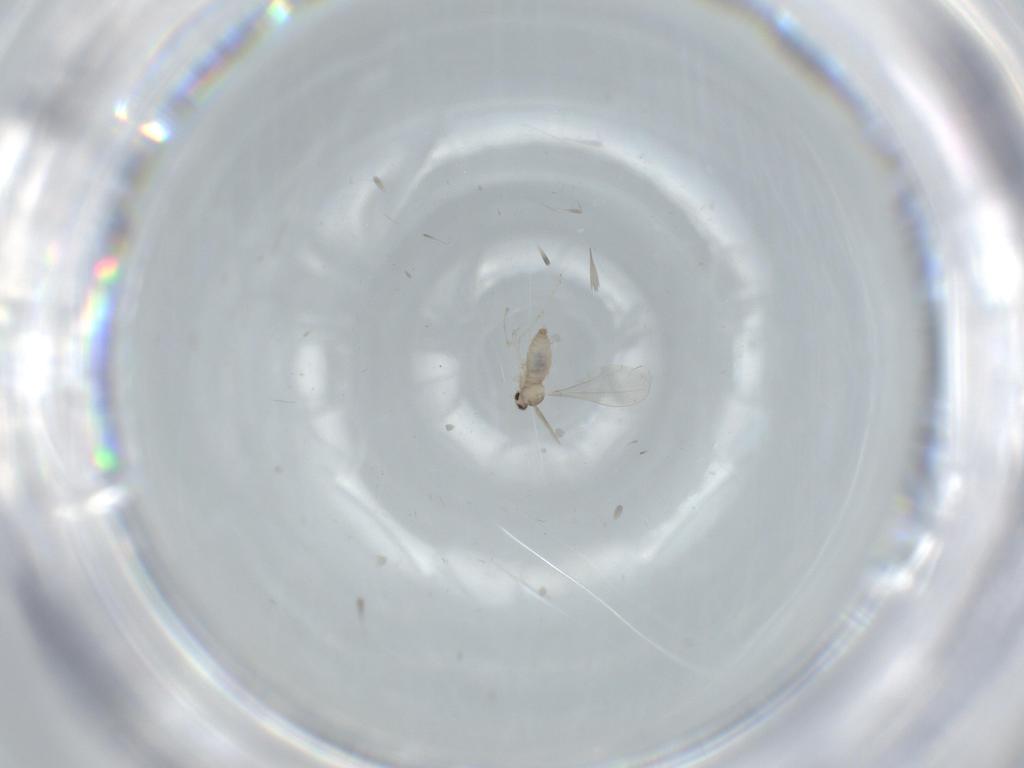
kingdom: Animalia
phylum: Arthropoda
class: Insecta
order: Diptera
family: Cecidomyiidae
